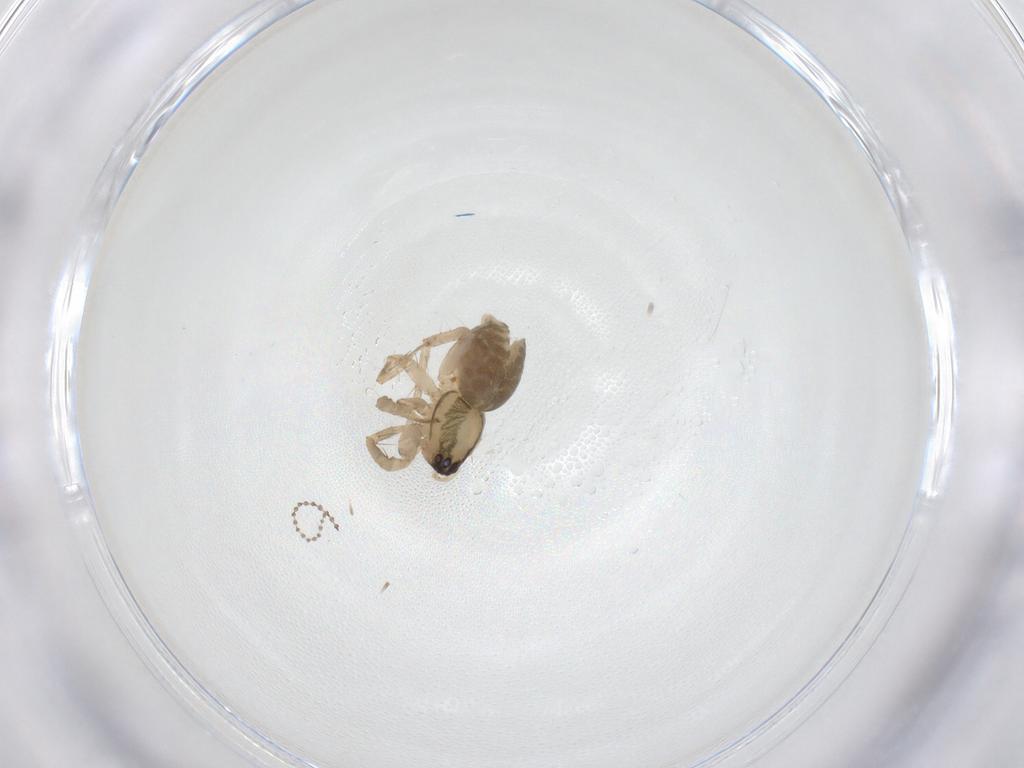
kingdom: Animalia
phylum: Arthropoda
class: Arachnida
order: Araneae
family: Anyphaenidae
